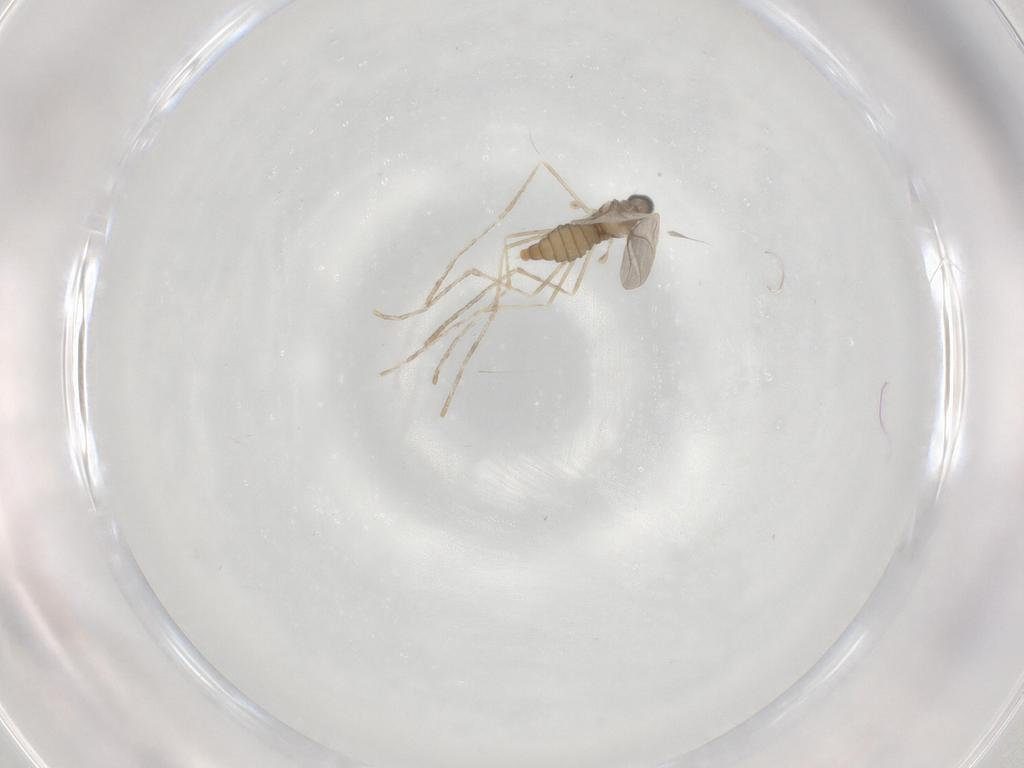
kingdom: Animalia
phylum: Arthropoda
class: Insecta
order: Diptera
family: Cecidomyiidae
